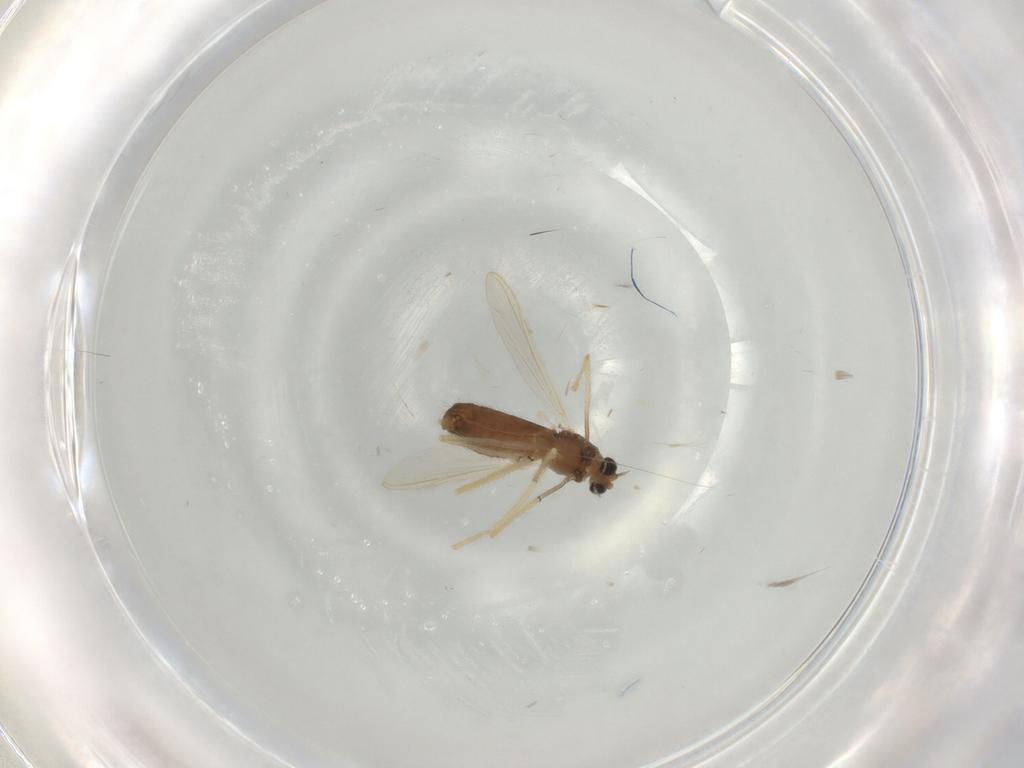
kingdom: Animalia
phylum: Arthropoda
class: Insecta
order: Diptera
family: Chironomidae
